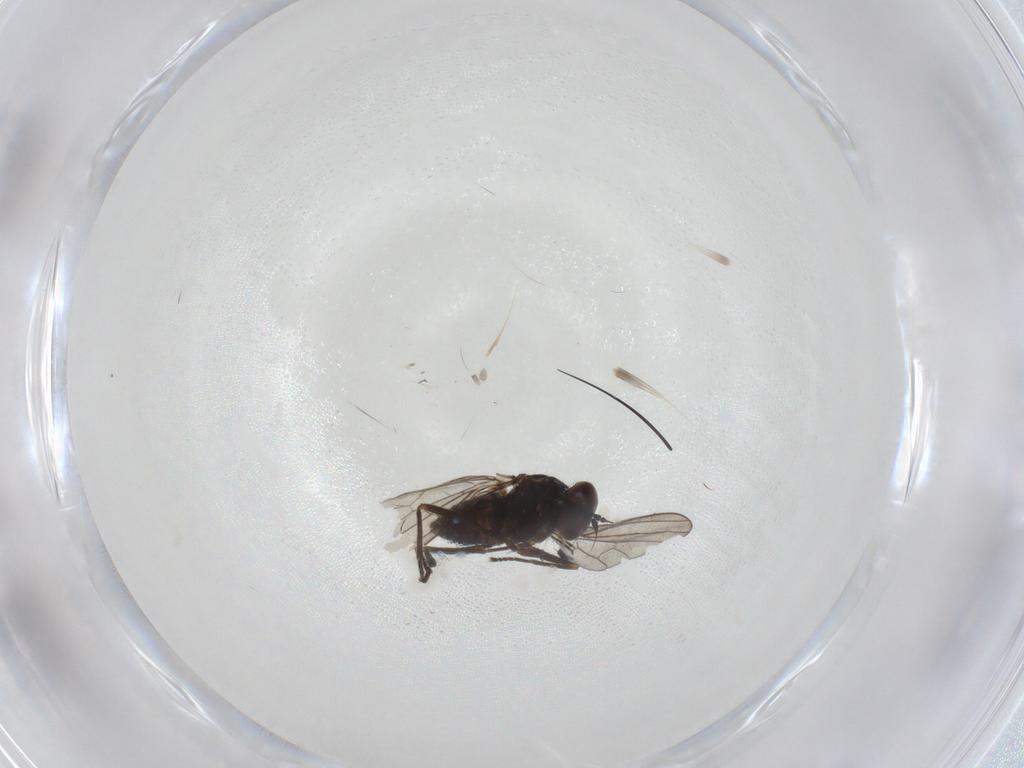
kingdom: Animalia
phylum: Arthropoda
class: Insecta
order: Diptera
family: Dolichopodidae
